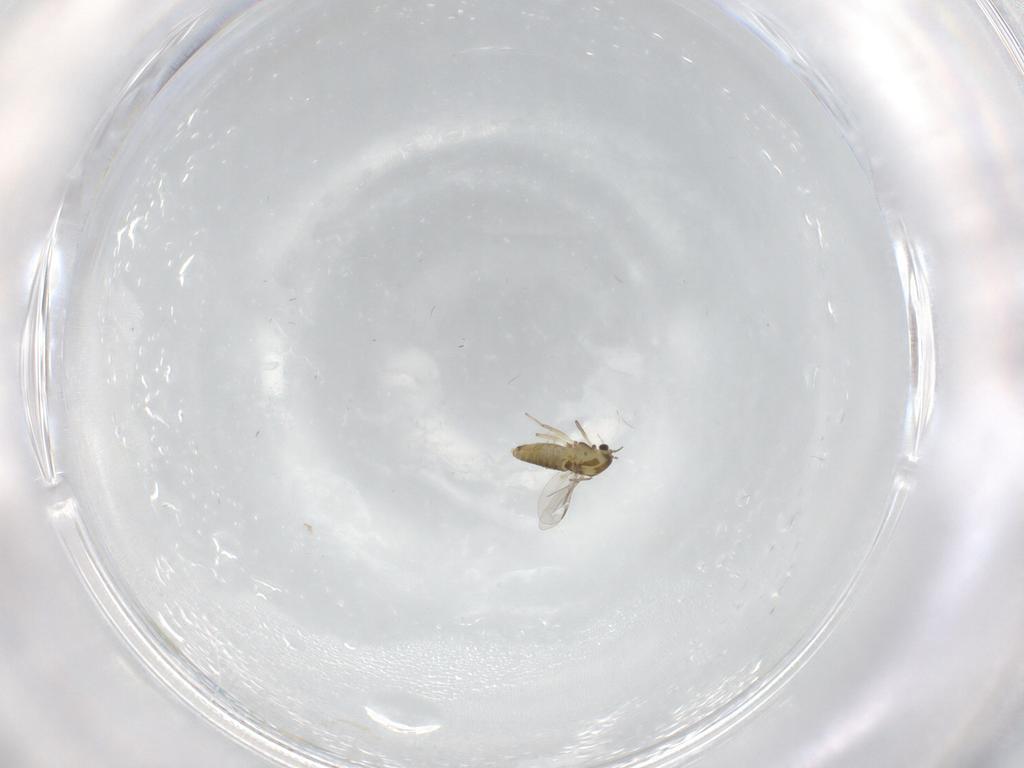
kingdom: Animalia
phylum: Arthropoda
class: Insecta
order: Diptera
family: Chironomidae
